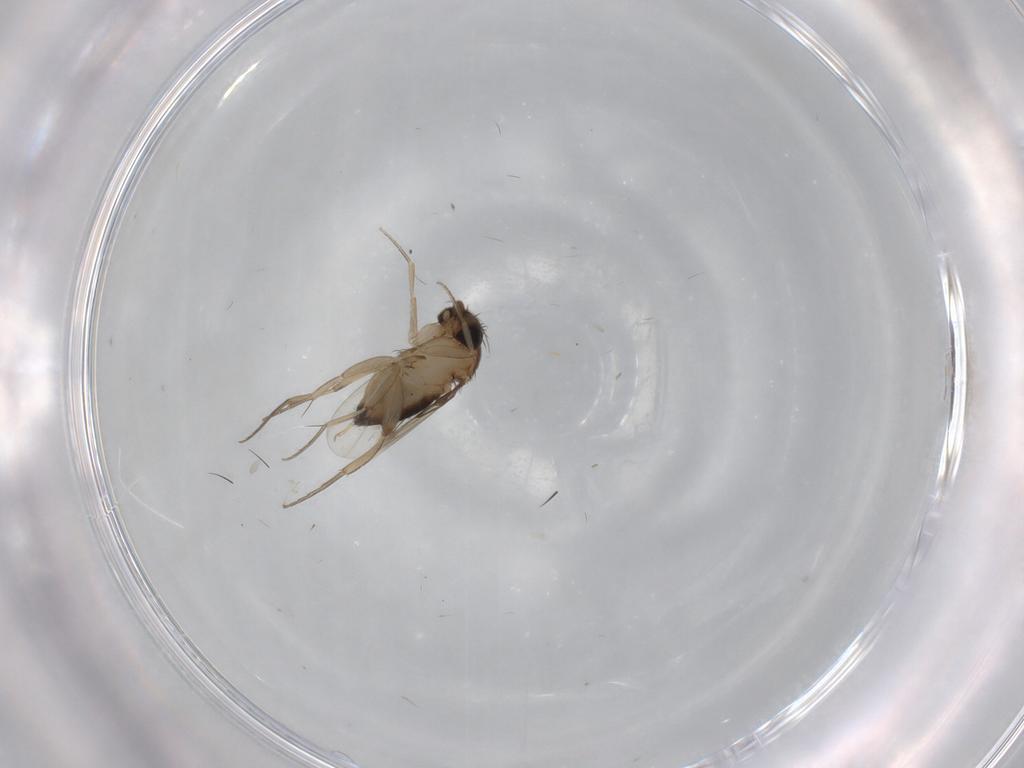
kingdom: Animalia
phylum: Arthropoda
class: Insecta
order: Diptera
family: Phoridae
